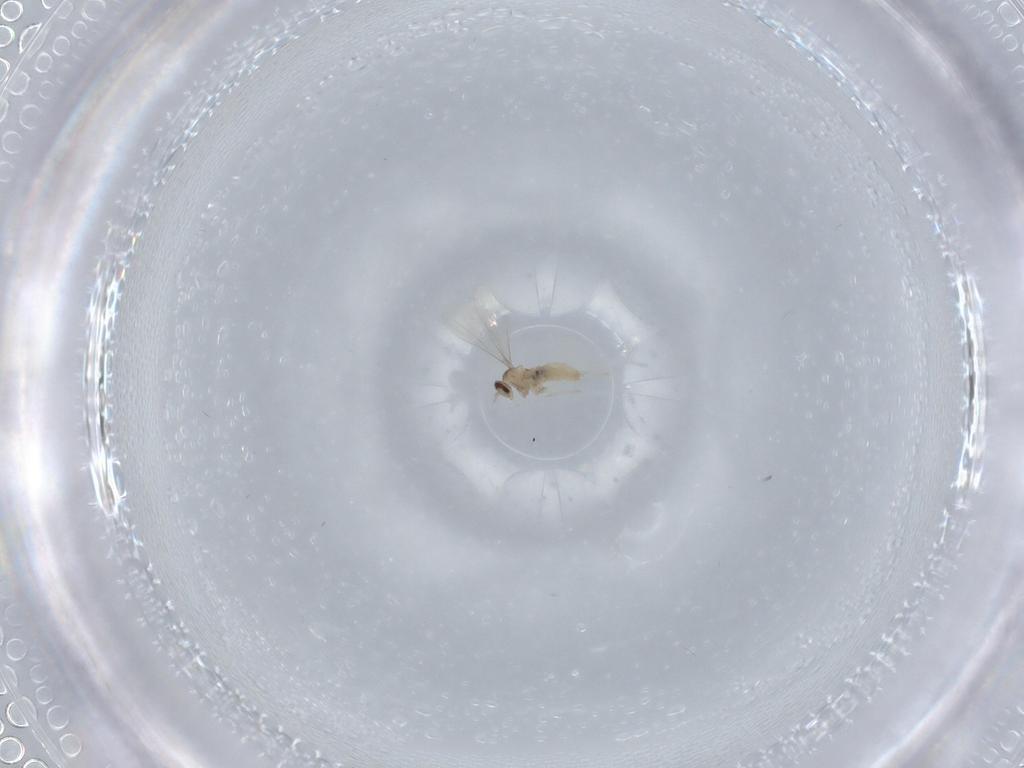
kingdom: Animalia
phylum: Arthropoda
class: Insecta
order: Diptera
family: Cecidomyiidae
